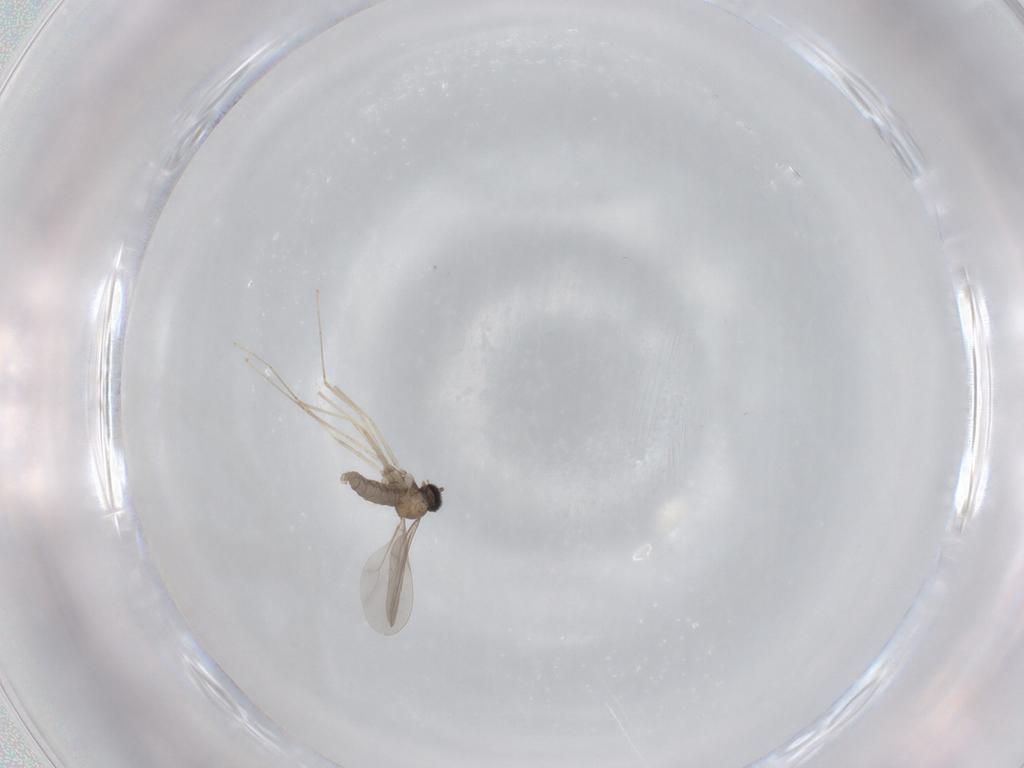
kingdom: Animalia
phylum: Arthropoda
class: Insecta
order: Diptera
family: Cecidomyiidae
